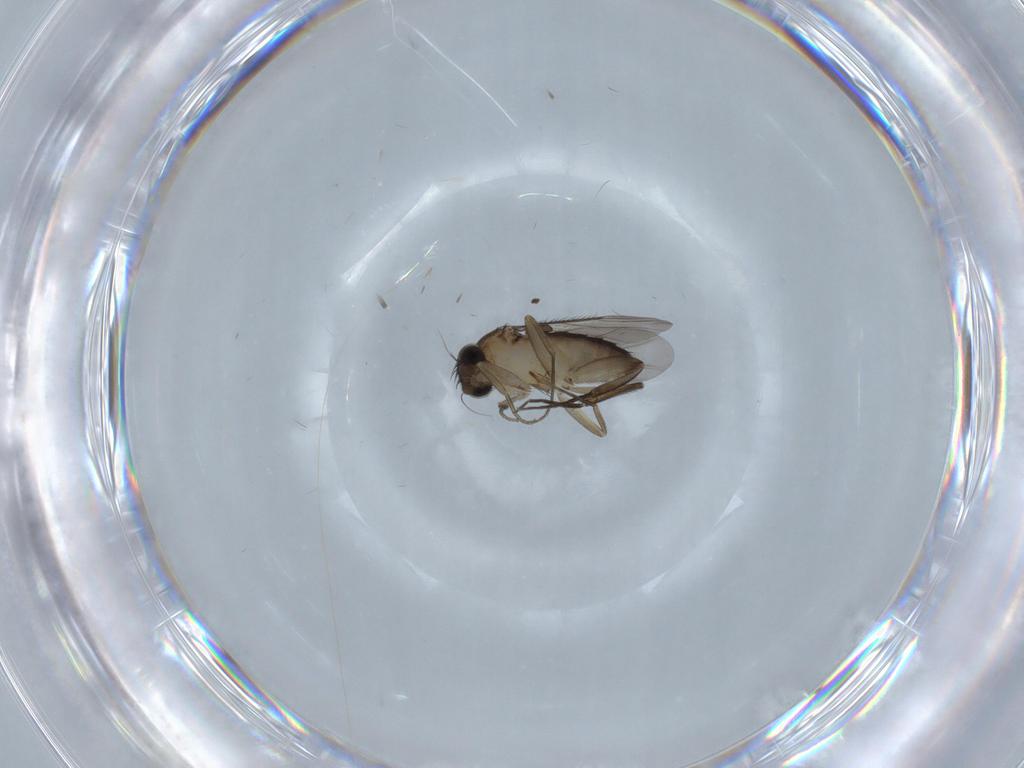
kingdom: Animalia
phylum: Arthropoda
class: Insecta
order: Diptera
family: Phoridae
